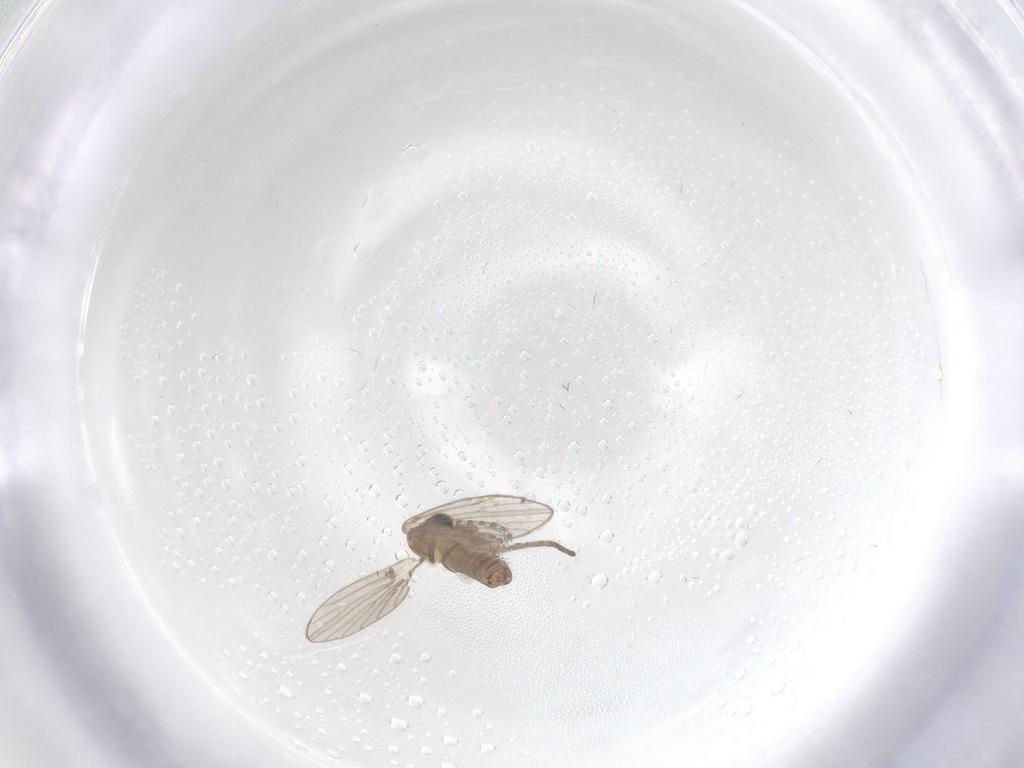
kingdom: Animalia
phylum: Arthropoda
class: Insecta
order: Diptera
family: Psychodidae
